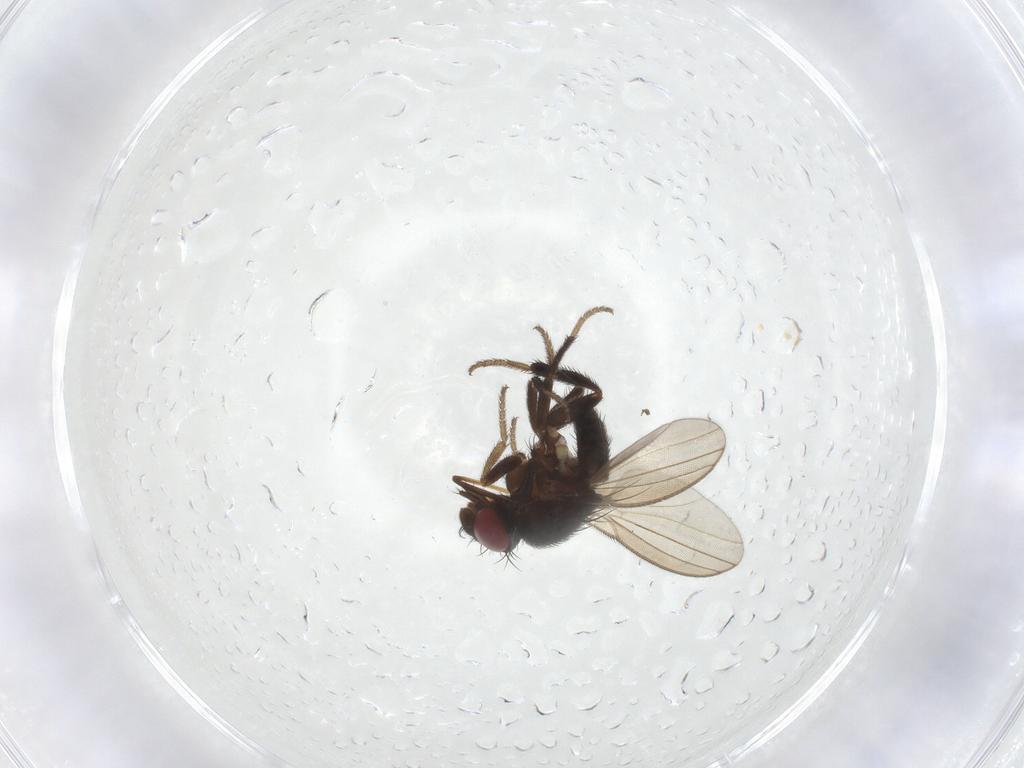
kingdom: Animalia
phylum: Arthropoda
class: Insecta
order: Diptera
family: Milichiidae
